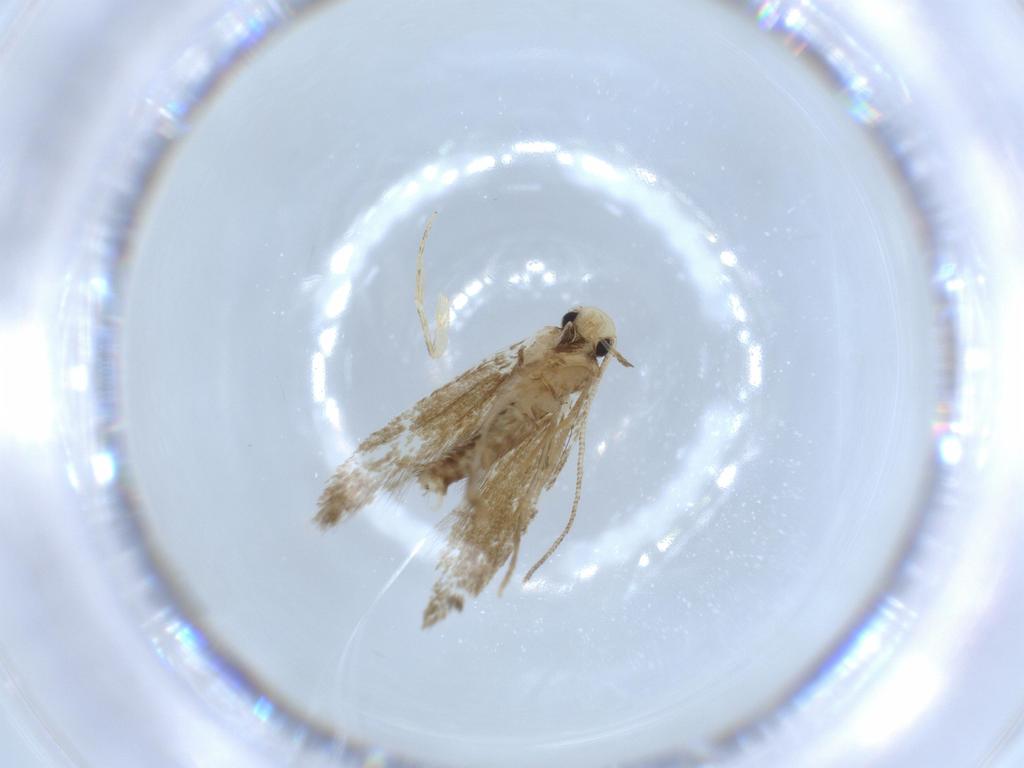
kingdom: Animalia
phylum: Arthropoda
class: Insecta
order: Lepidoptera
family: Tineidae
